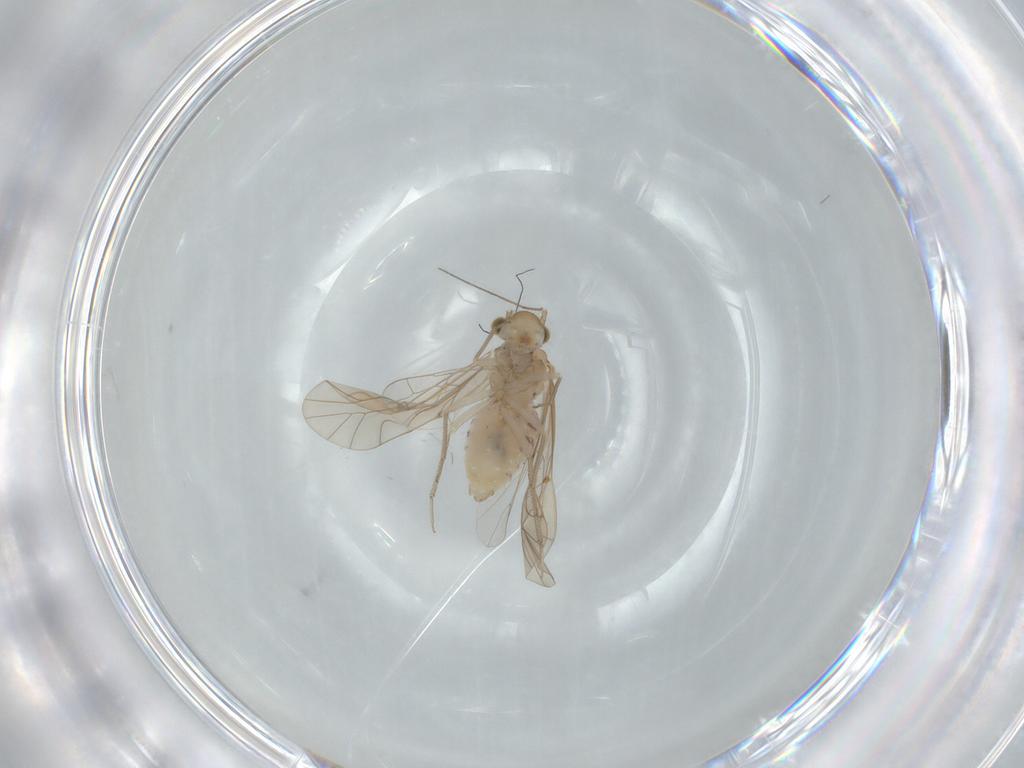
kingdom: Animalia
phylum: Arthropoda
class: Insecta
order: Psocodea
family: Lachesillidae
